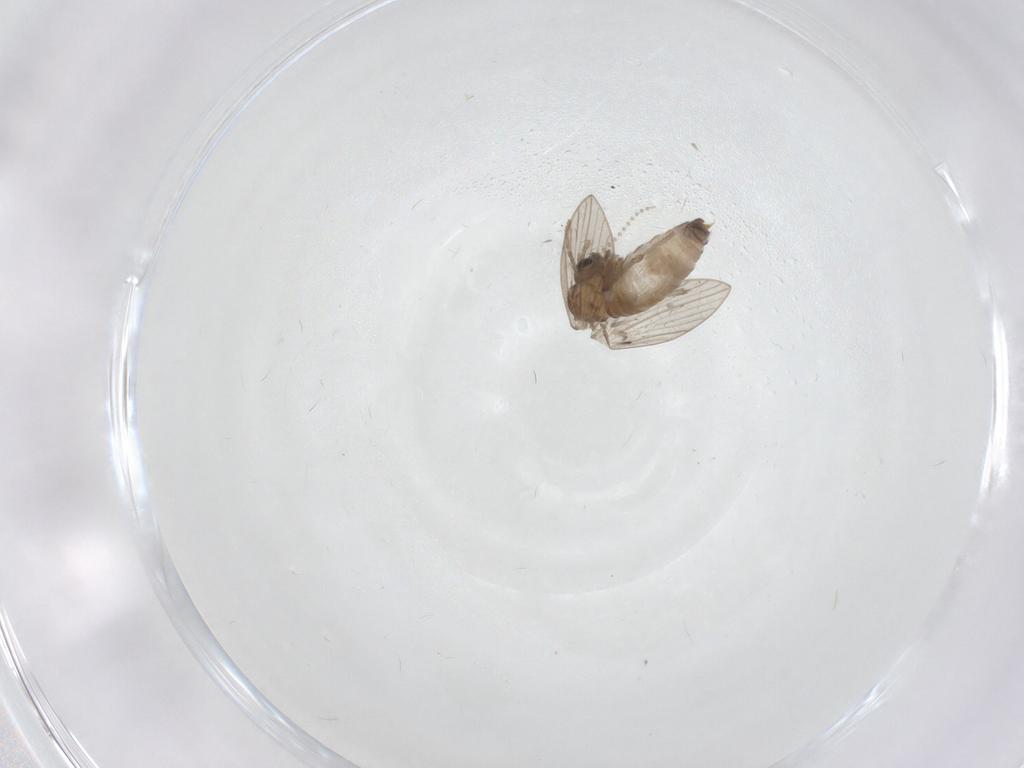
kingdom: Animalia
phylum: Arthropoda
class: Insecta
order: Diptera
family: Psychodidae
